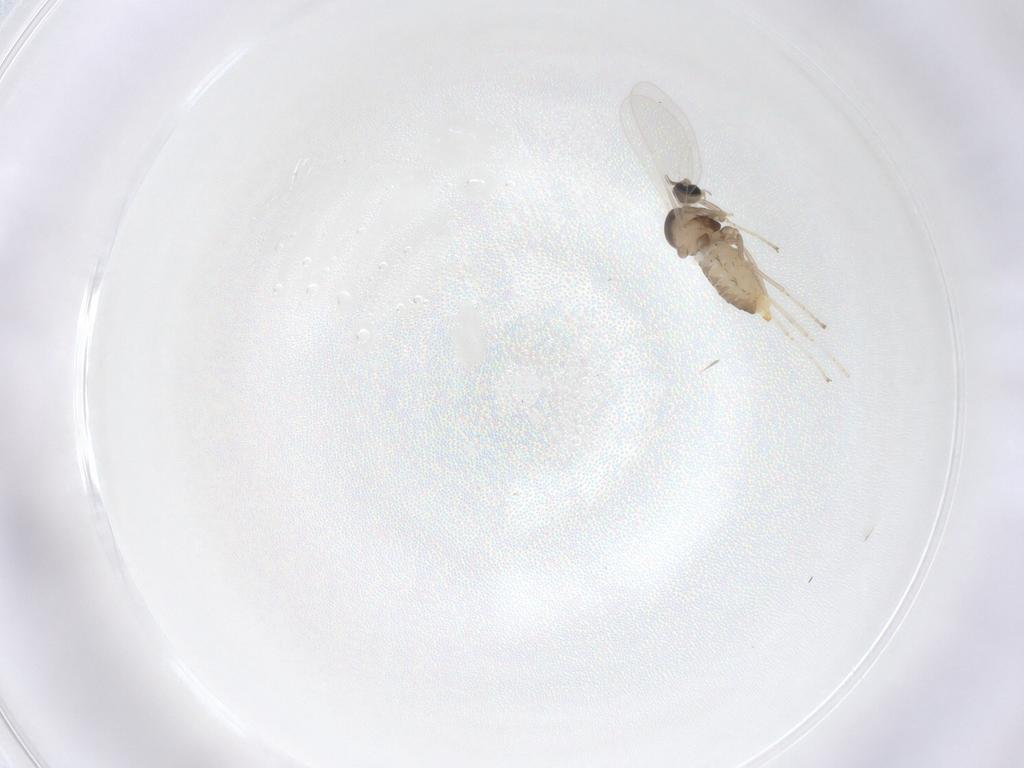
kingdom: Animalia
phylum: Arthropoda
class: Insecta
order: Diptera
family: Cecidomyiidae
